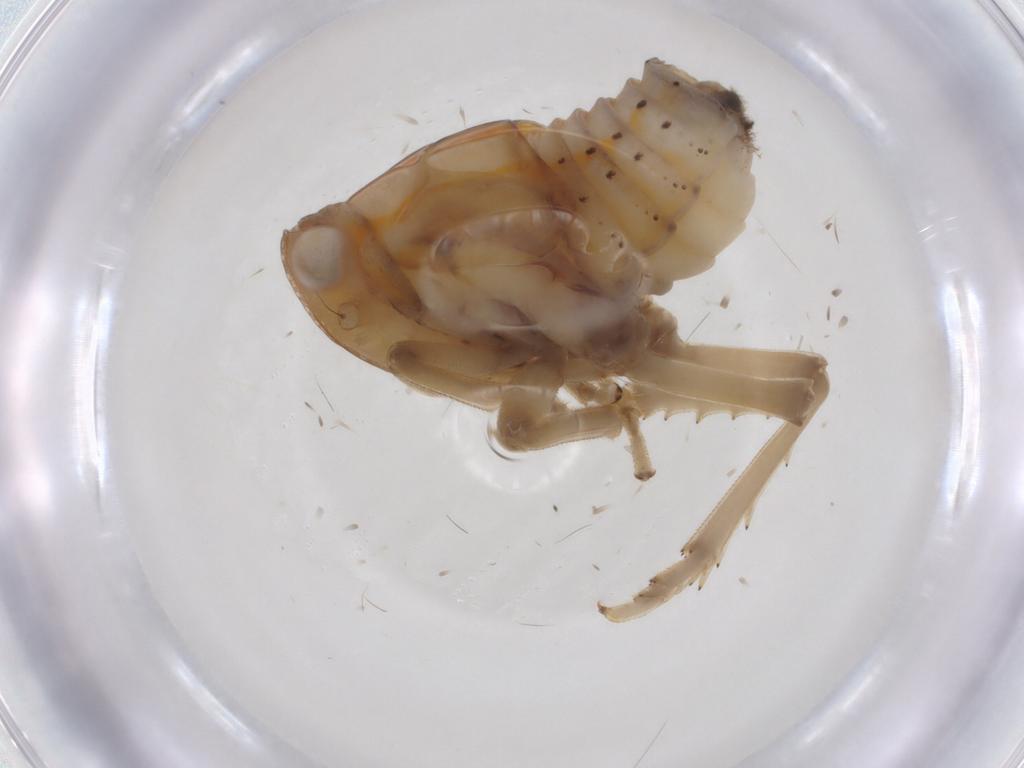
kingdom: Animalia
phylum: Arthropoda
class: Insecta
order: Hemiptera
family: Tropiduchidae
